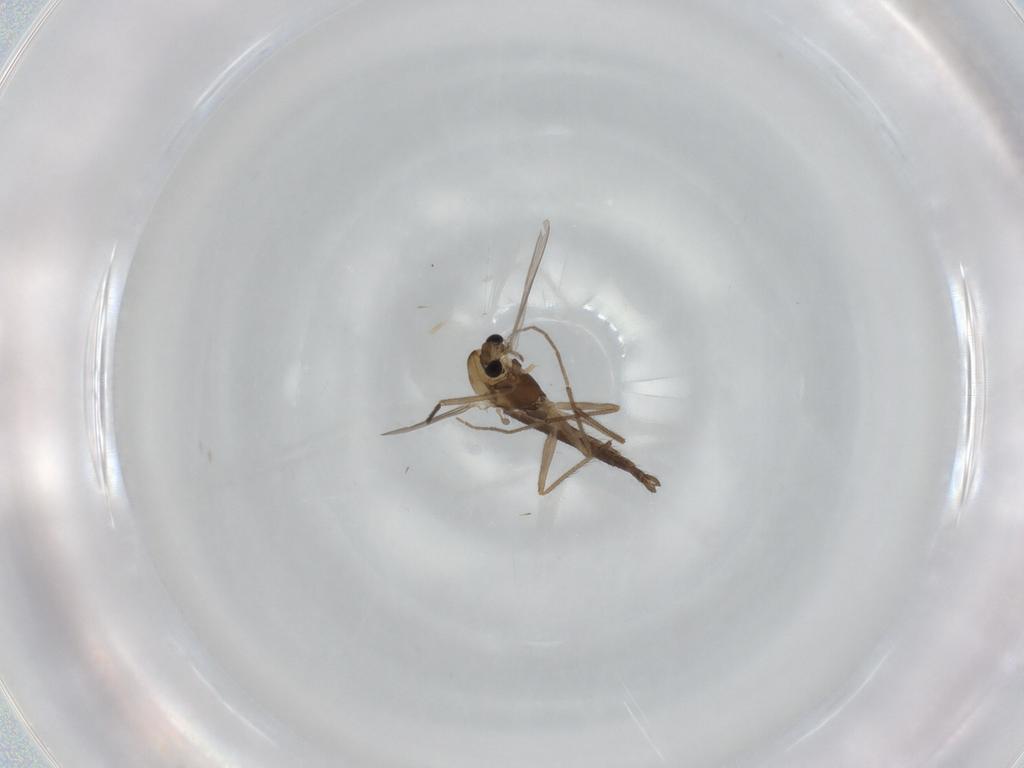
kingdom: Animalia
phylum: Arthropoda
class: Insecta
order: Diptera
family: Chironomidae
